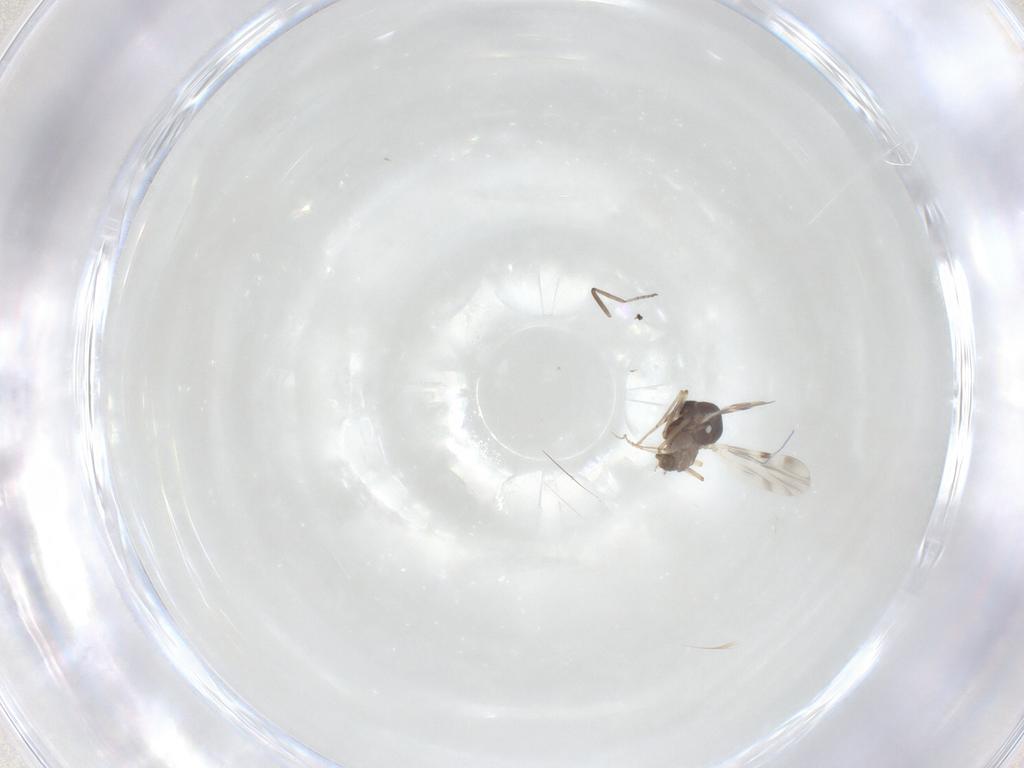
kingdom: Animalia
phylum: Arthropoda
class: Insecta
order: Diptera
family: Ceratopogonidae
